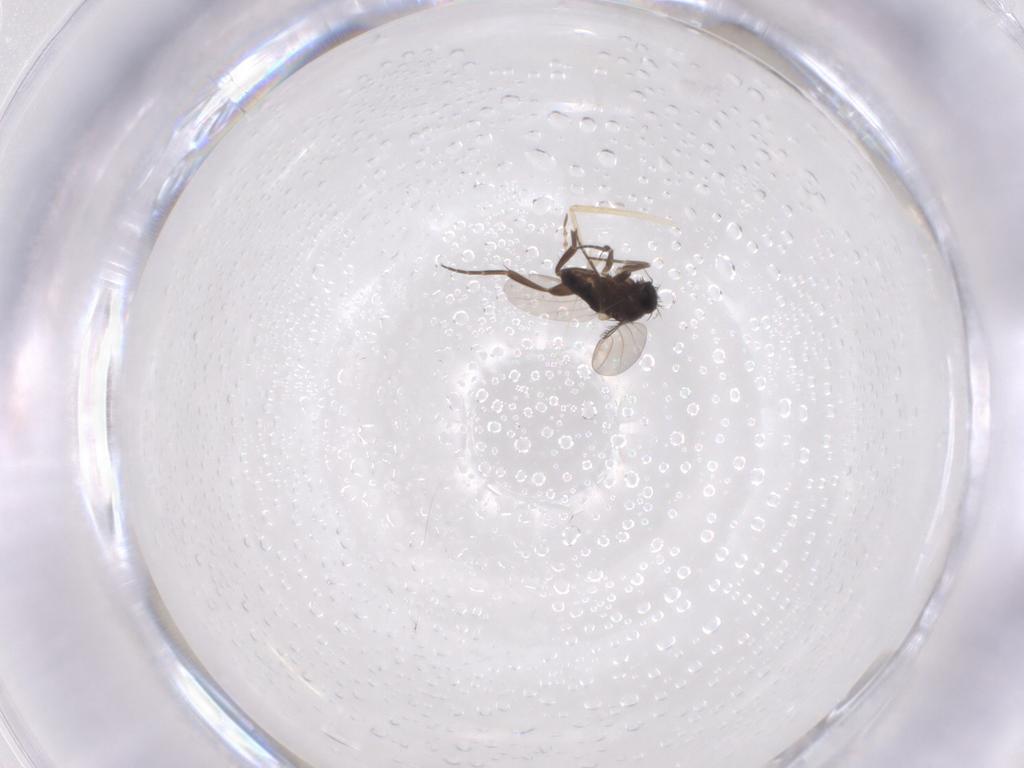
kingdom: Animalia
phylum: Arthropoda
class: Insecta
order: Diptera
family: Phoridae
